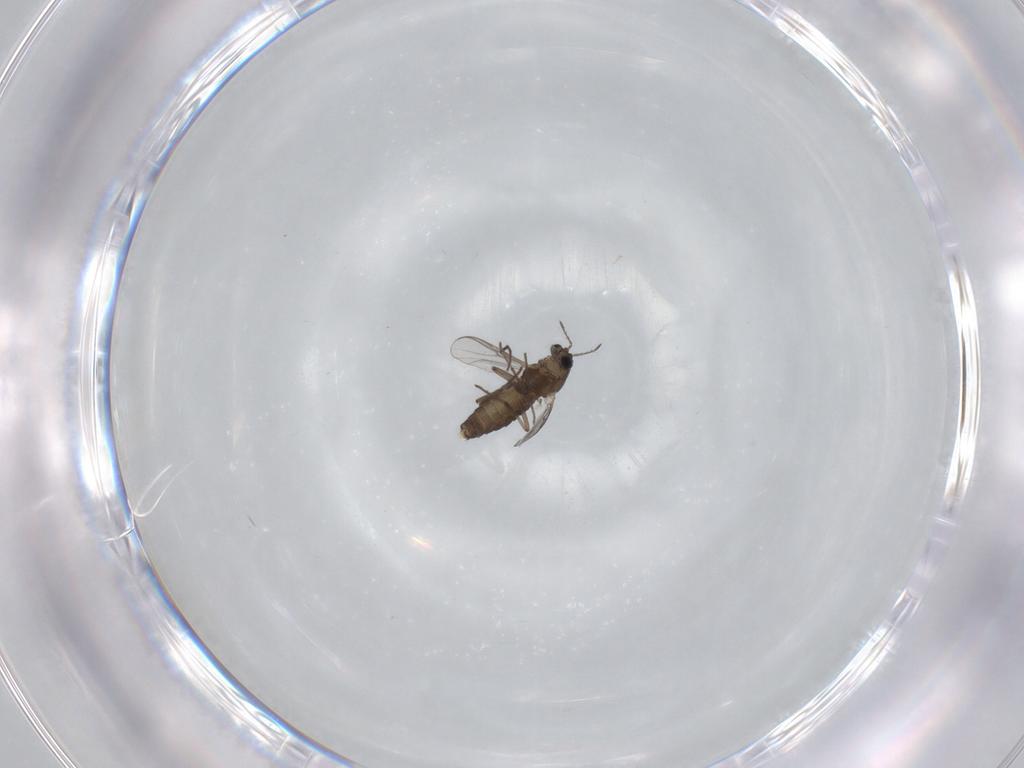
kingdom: Animalia
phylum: Arthropoda
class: Insecta
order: Diptera
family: Chironomidae
